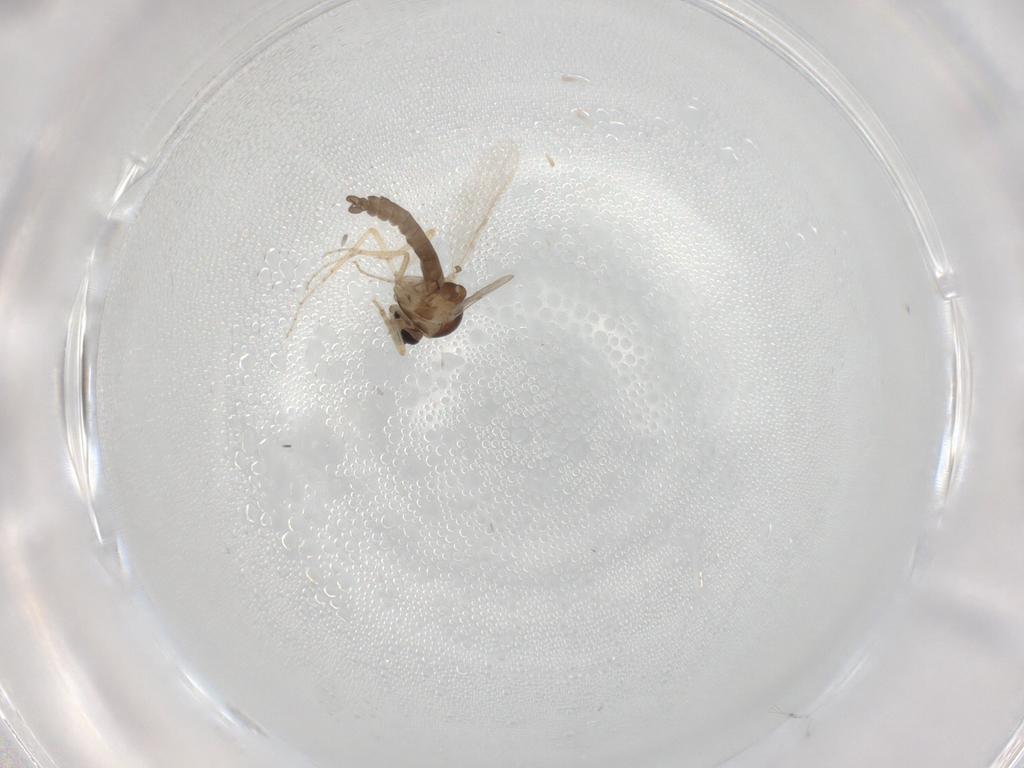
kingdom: Animalia
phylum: Arthropoda
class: Insecta
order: Diptera
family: Ceratopogonidae
